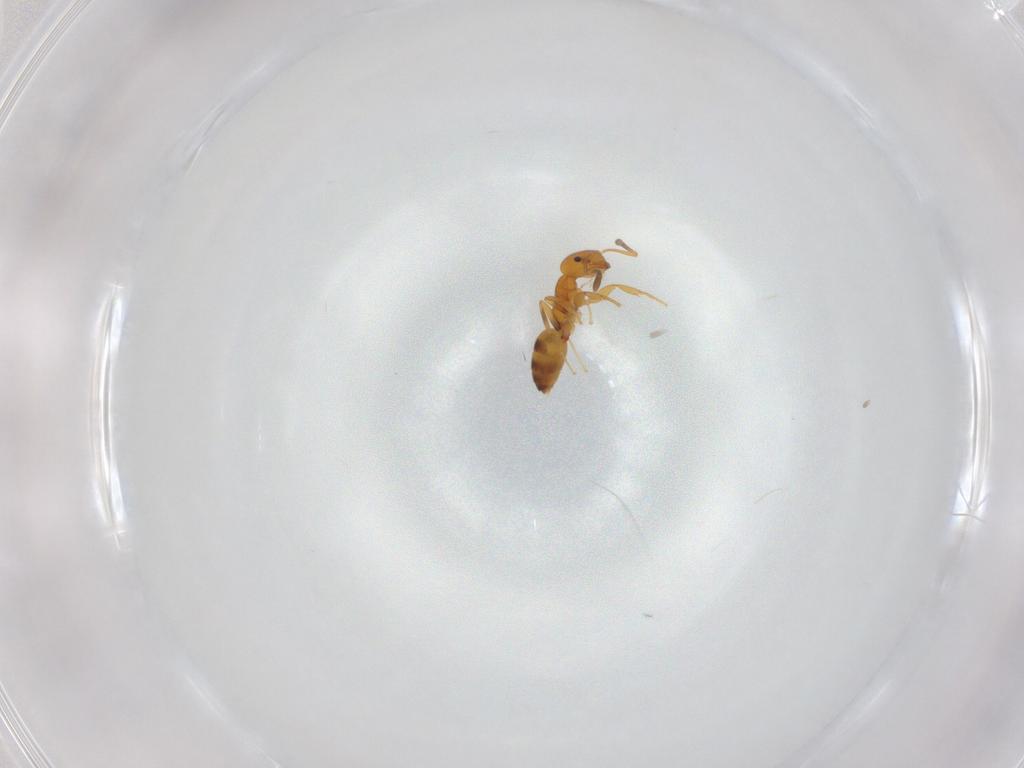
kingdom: Animalia
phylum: Arthropoda
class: Insecta
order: Hymenoptera
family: Formicidae
